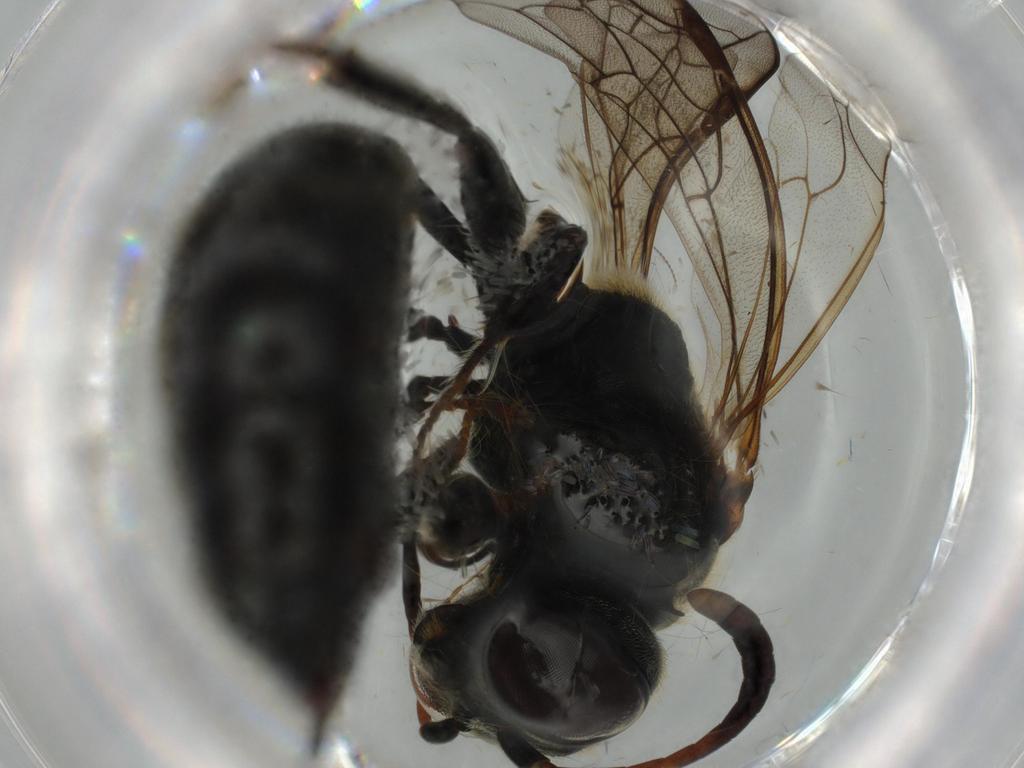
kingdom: Animalia
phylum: Arthropoda
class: Insecta
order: Hymenoptera
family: Psenidae
